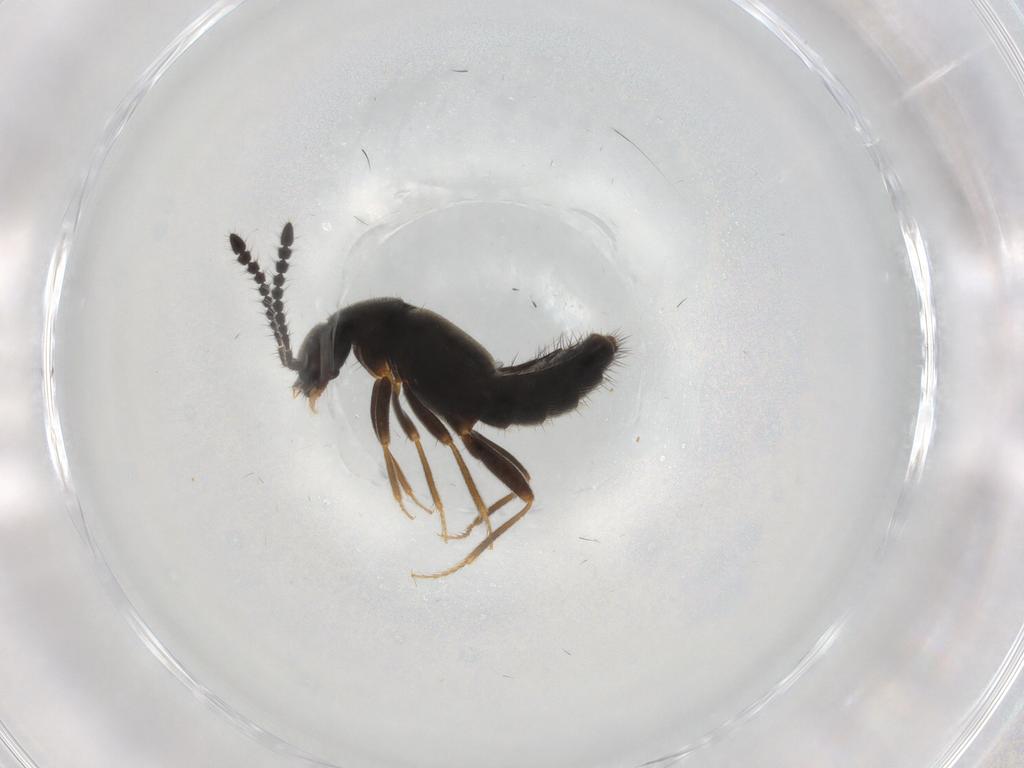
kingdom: Animalia
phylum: Arthropoda
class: Insecta
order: Coleoptera
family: Staphylinidae
